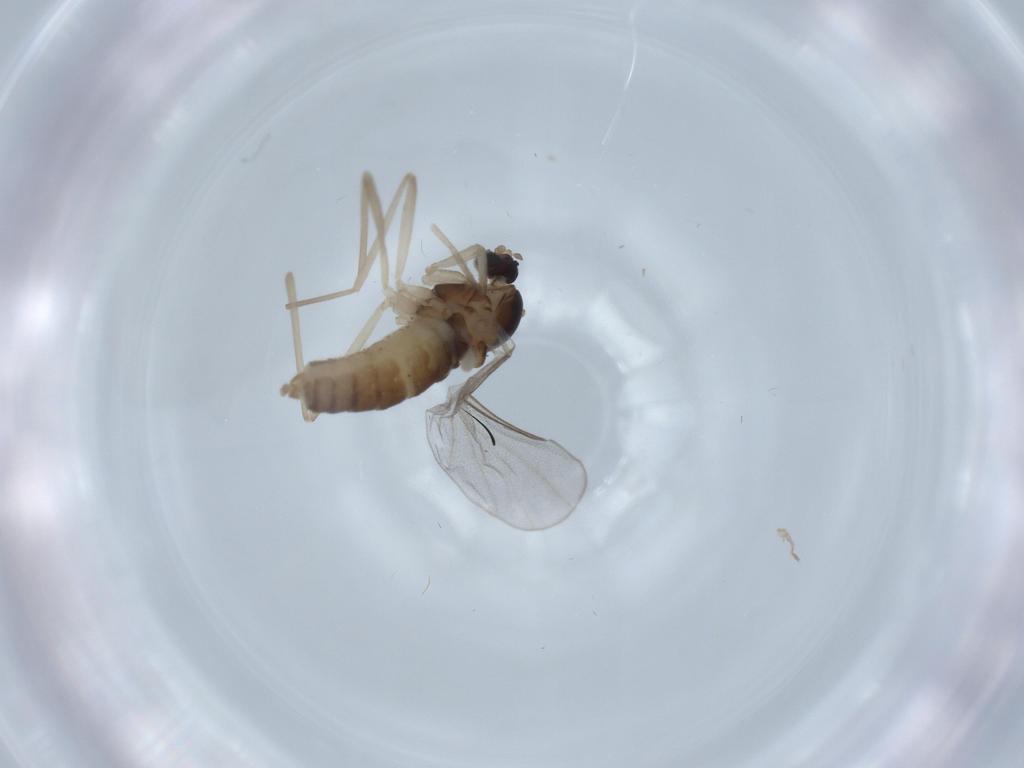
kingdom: Animalia
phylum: Arthropoda
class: Insecta
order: Diptera
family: Cecidomyiidae
